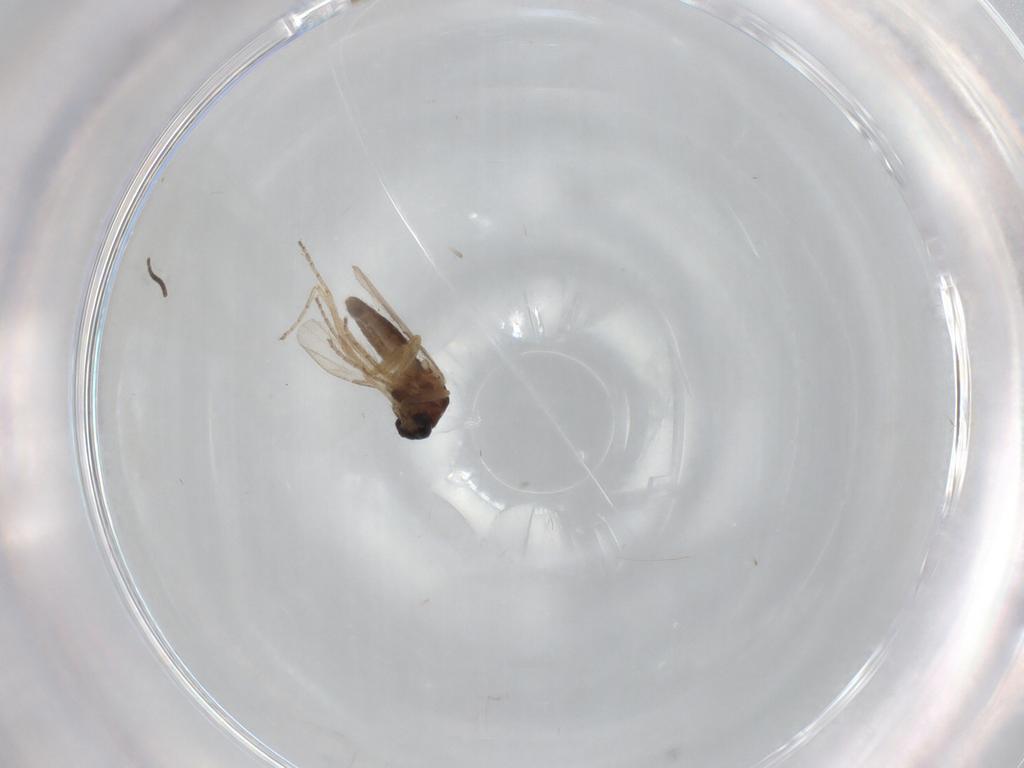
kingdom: Animalia
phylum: Arthropoda
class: Insecta
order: Diptera
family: Ceratopogonidae
